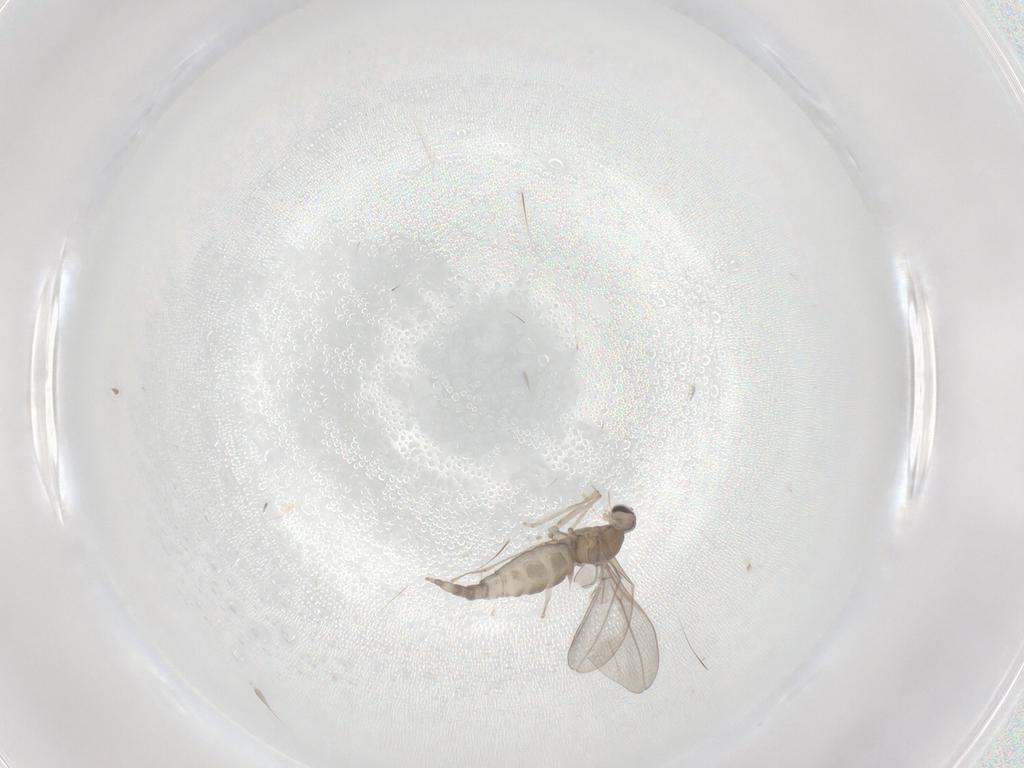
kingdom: Animalia
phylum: Arthropoda
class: Insecta
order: Diptera
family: Cecidomyiidae
